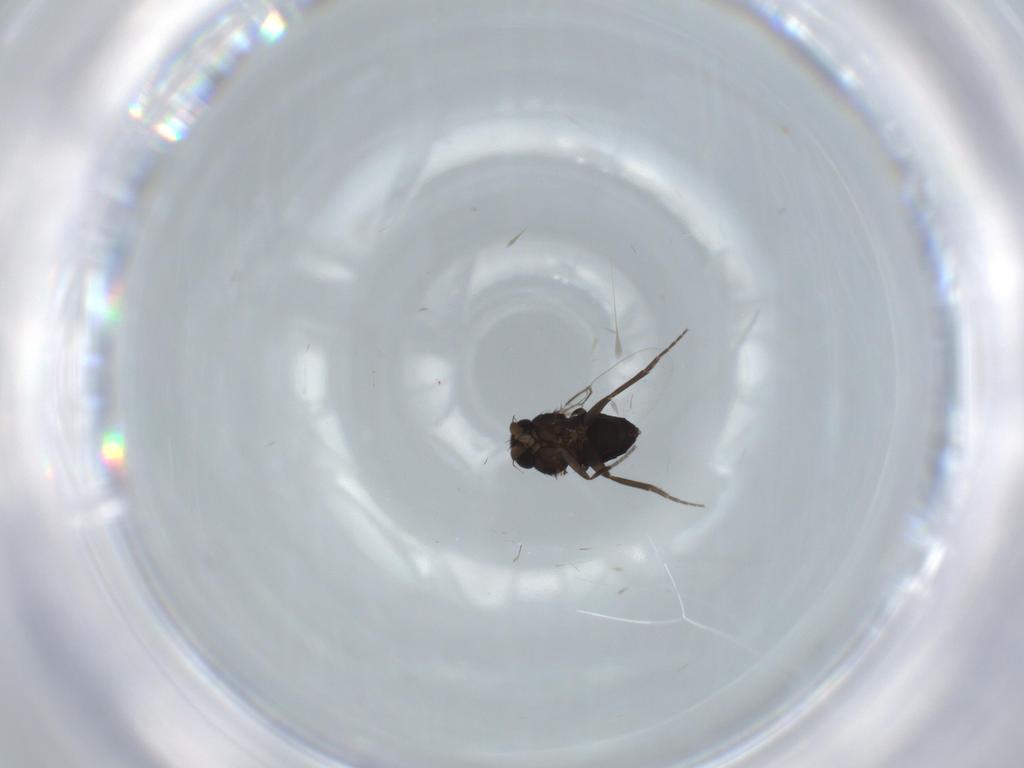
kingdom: Animalia
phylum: Arthropoda
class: Insecta
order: Diptera
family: Phoridae
